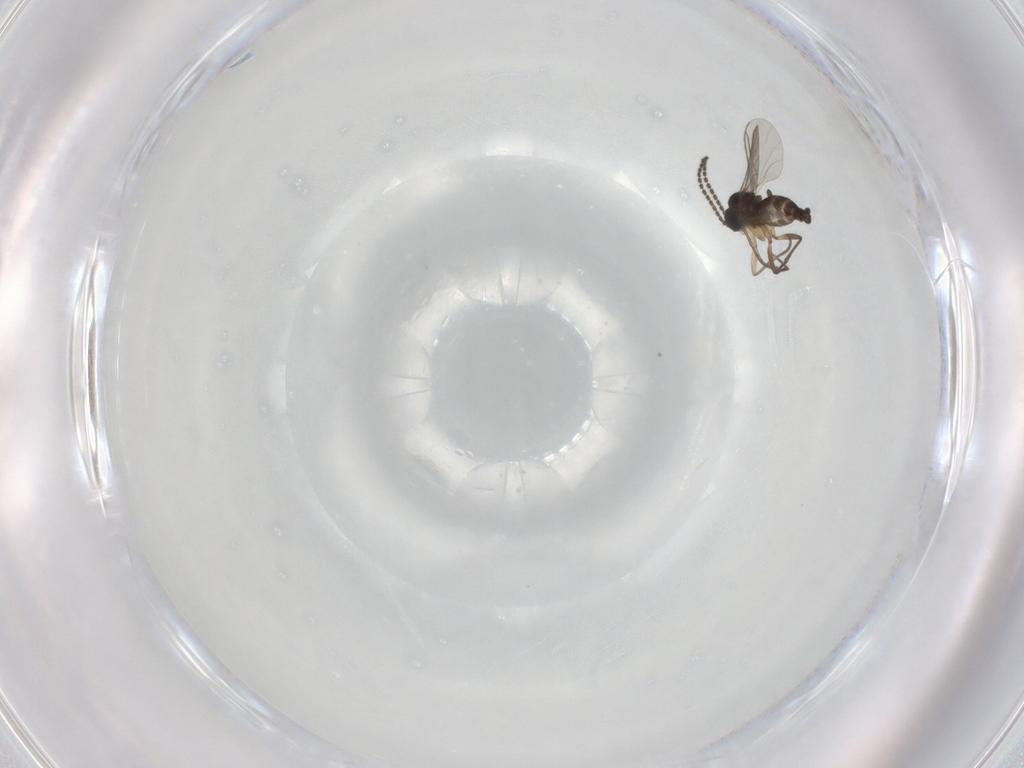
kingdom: Animalia
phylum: Arthropoda
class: Insecta
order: Diptera
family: Sciaridae
